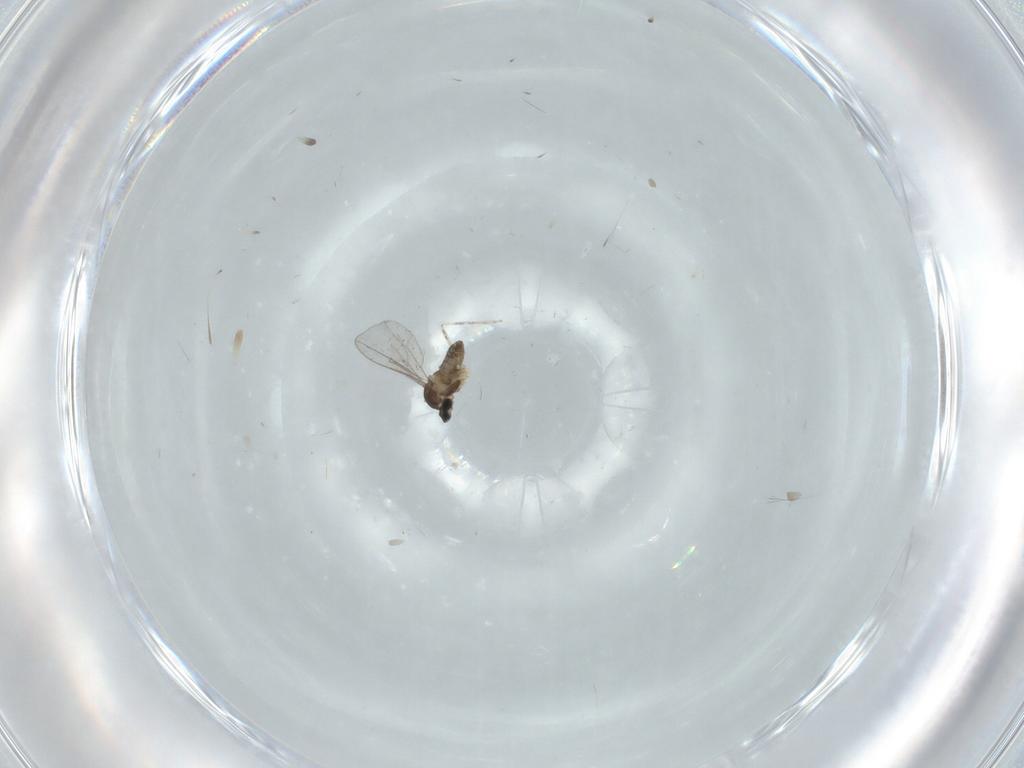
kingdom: Animalia
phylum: Arthropoda
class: Insecta
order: Diptera
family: Cecidomyiidae
